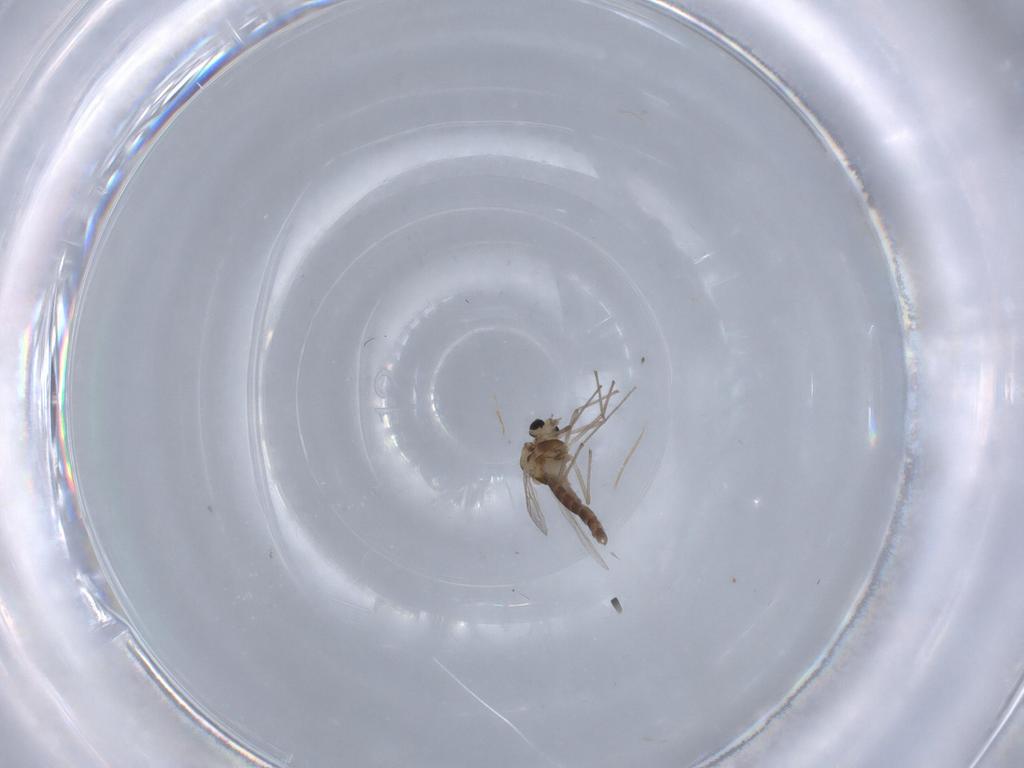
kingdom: Animalia
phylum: Arthropoda
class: Insecta
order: Diptera
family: Chironomidae
